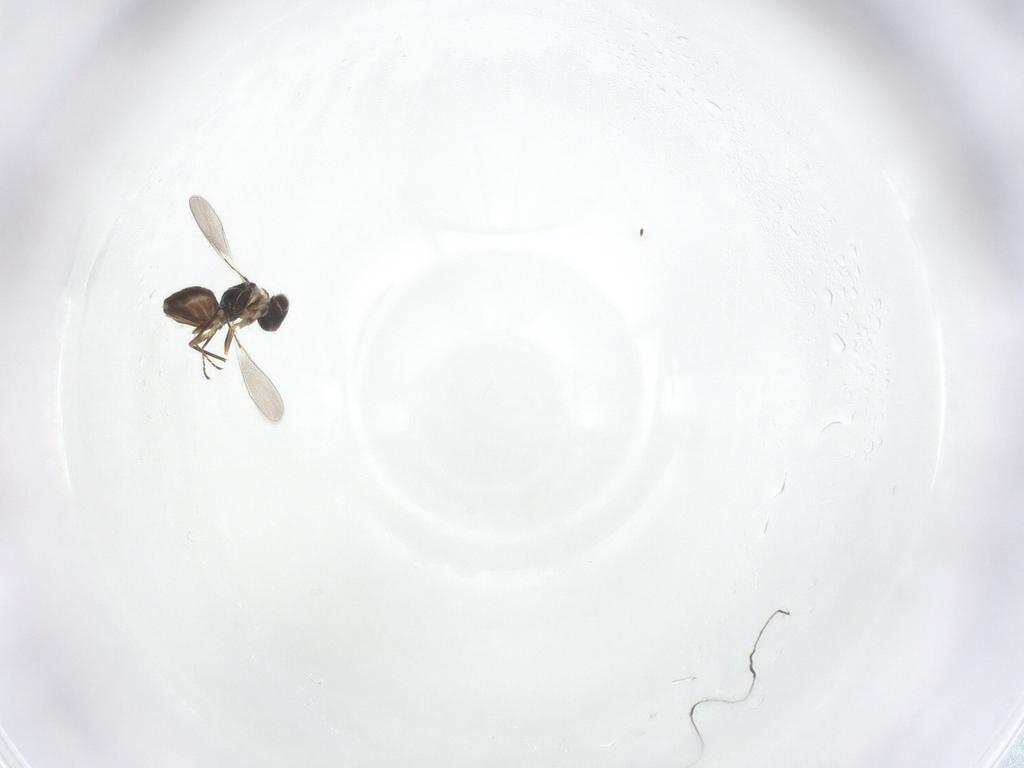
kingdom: Animalia
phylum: Arthropoda
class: Insecta
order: Hymenoptera
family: Mymaridae
